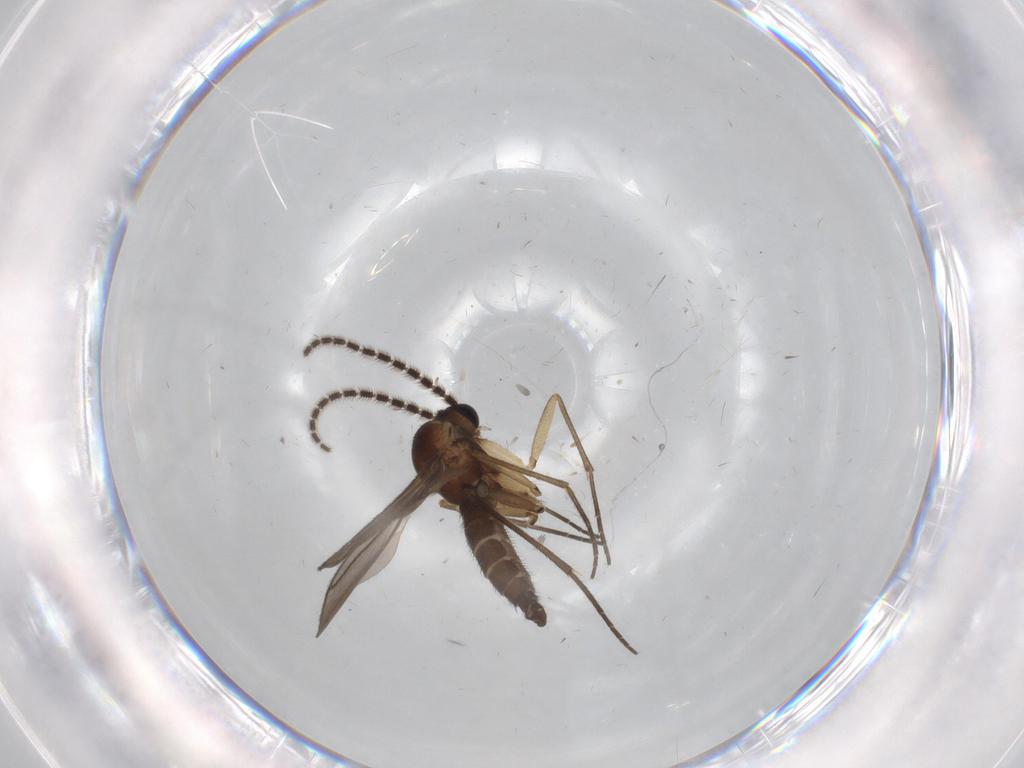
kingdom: Animalia
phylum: Arthropoda
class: Insecta
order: Diptera
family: Sciaridae
